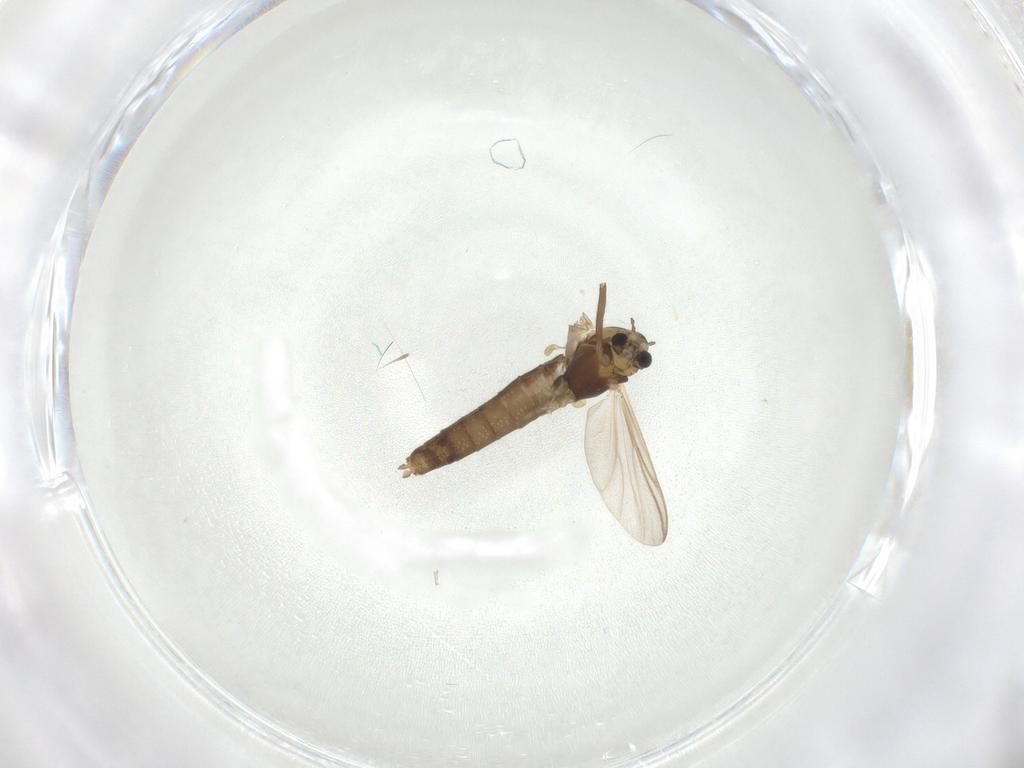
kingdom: Animalia
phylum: Arthropoda
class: Insecta
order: Diptera
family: Chironomidae
